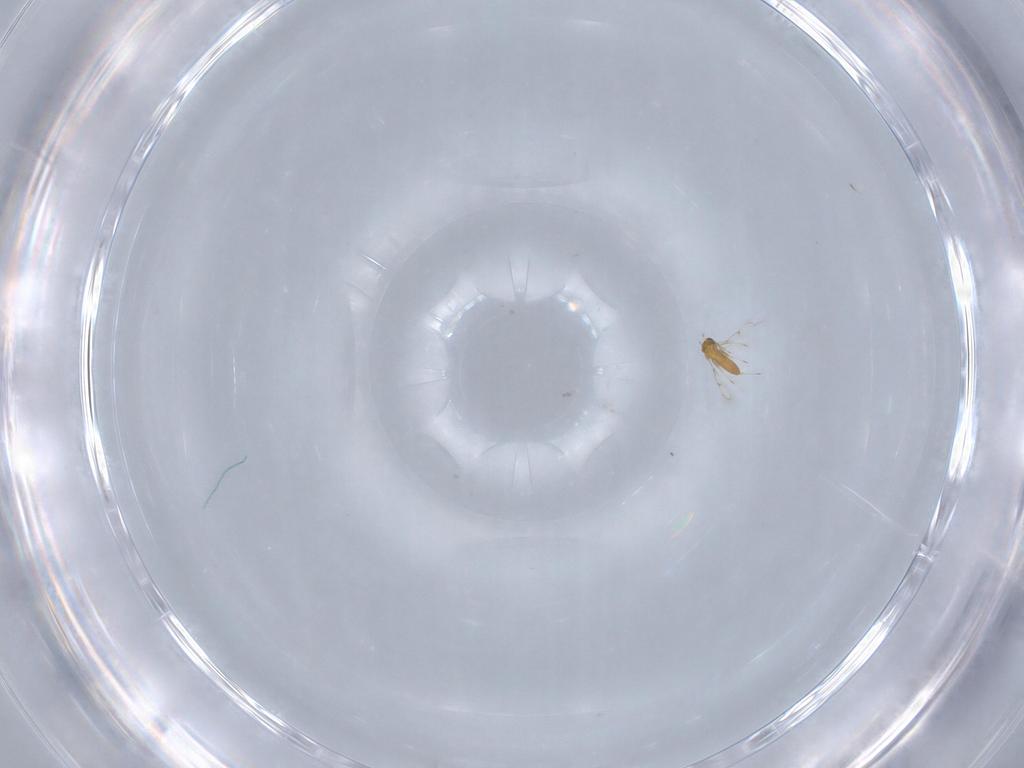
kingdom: Animalia
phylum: Arthropoda
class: Insecta
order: Hymenoptera
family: Trichogrammatidae
